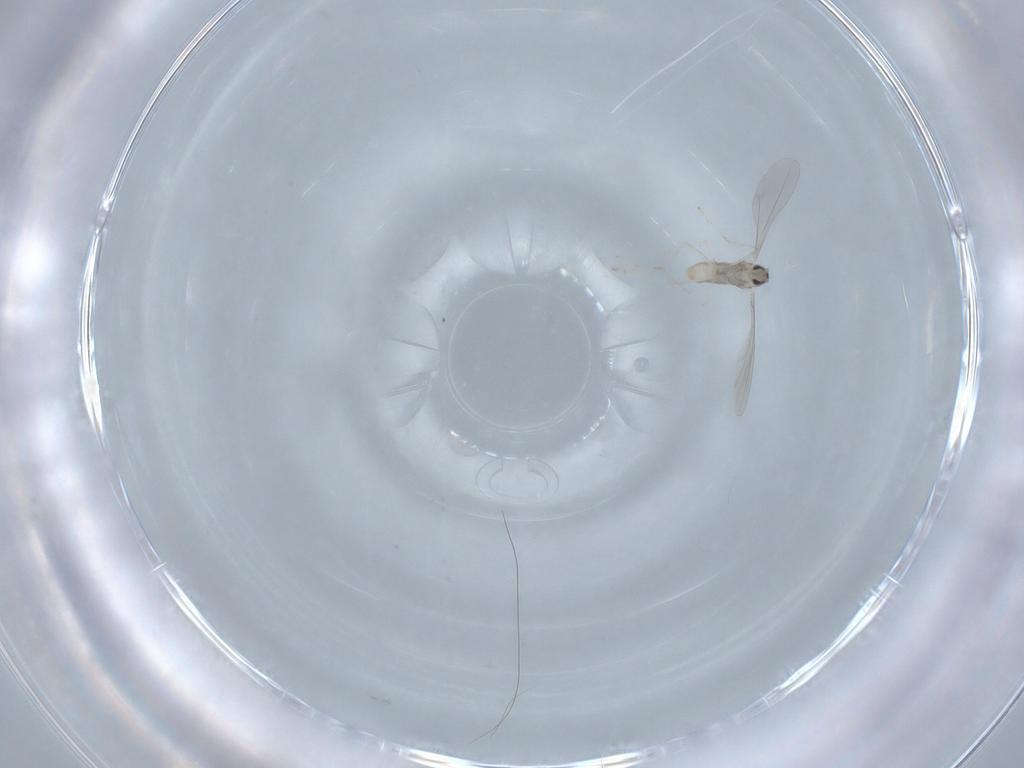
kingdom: Animalia
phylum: Arthropoda
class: Insecta
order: Diptera
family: Cecidomyiidae
